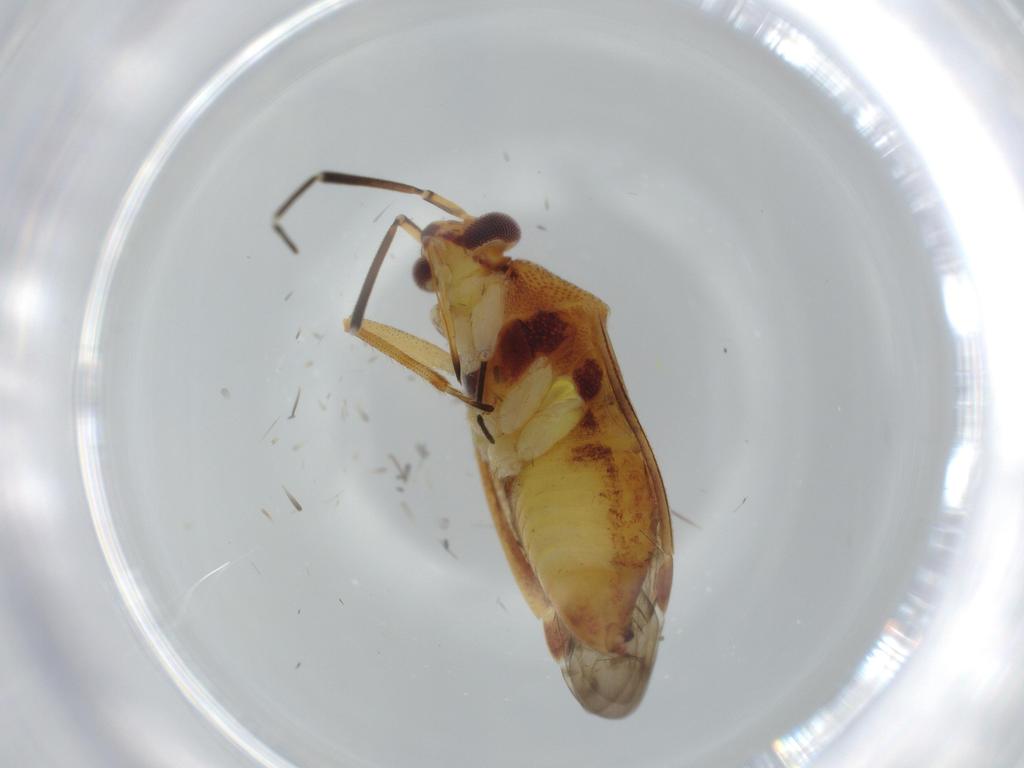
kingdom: Animalia
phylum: Arthropoda
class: Insecta
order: Hemiptera
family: Miridae
